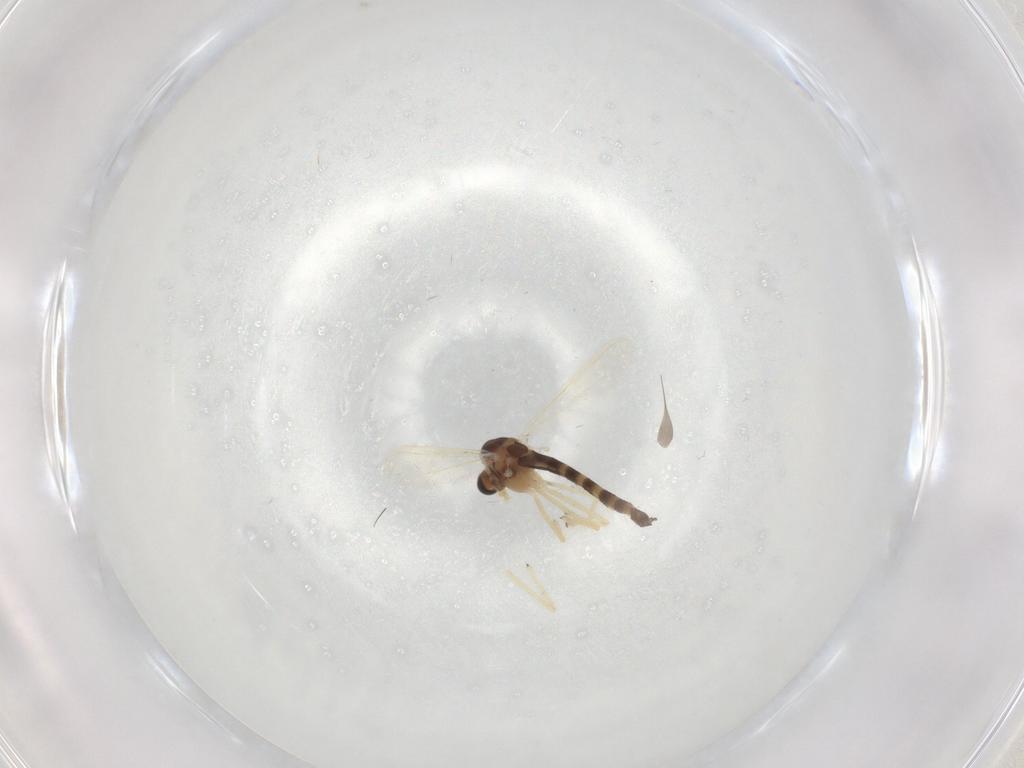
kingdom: Animalia
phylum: Arthropoda
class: Insecta
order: Diptera
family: Chironomidae
